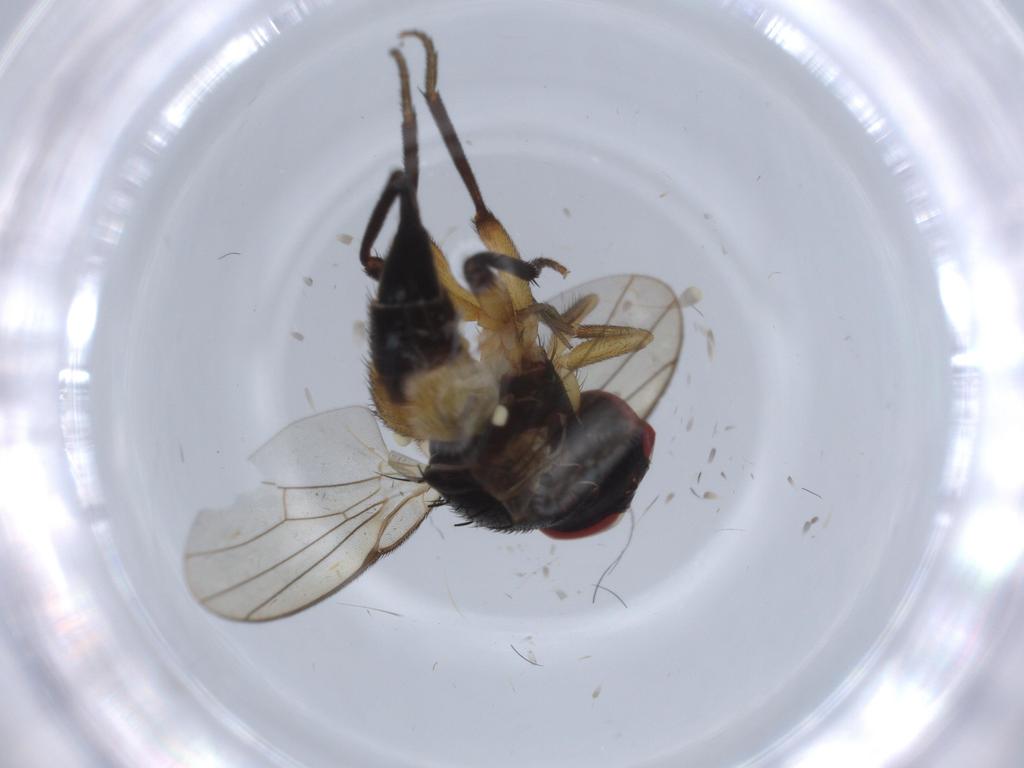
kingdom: Animalia
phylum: Arthropoda
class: Insecta
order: Diptera
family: Agromyzidae
